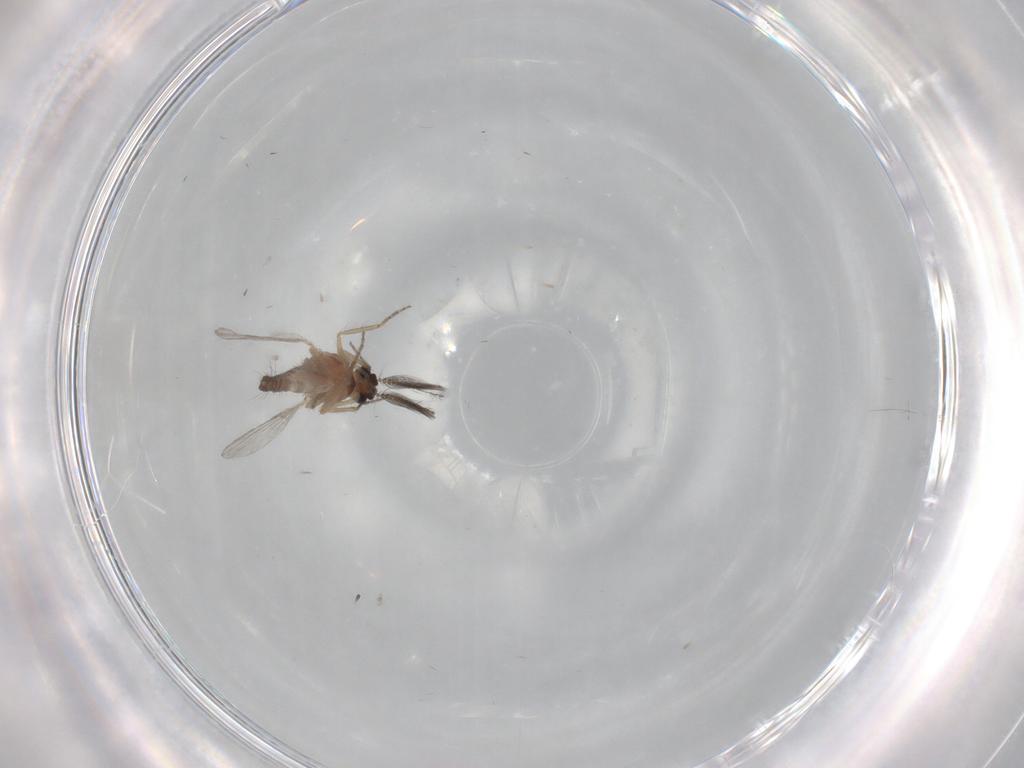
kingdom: Animalia
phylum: Arthropoda
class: Insecta
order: Diptera
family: Ceratopogonidae
